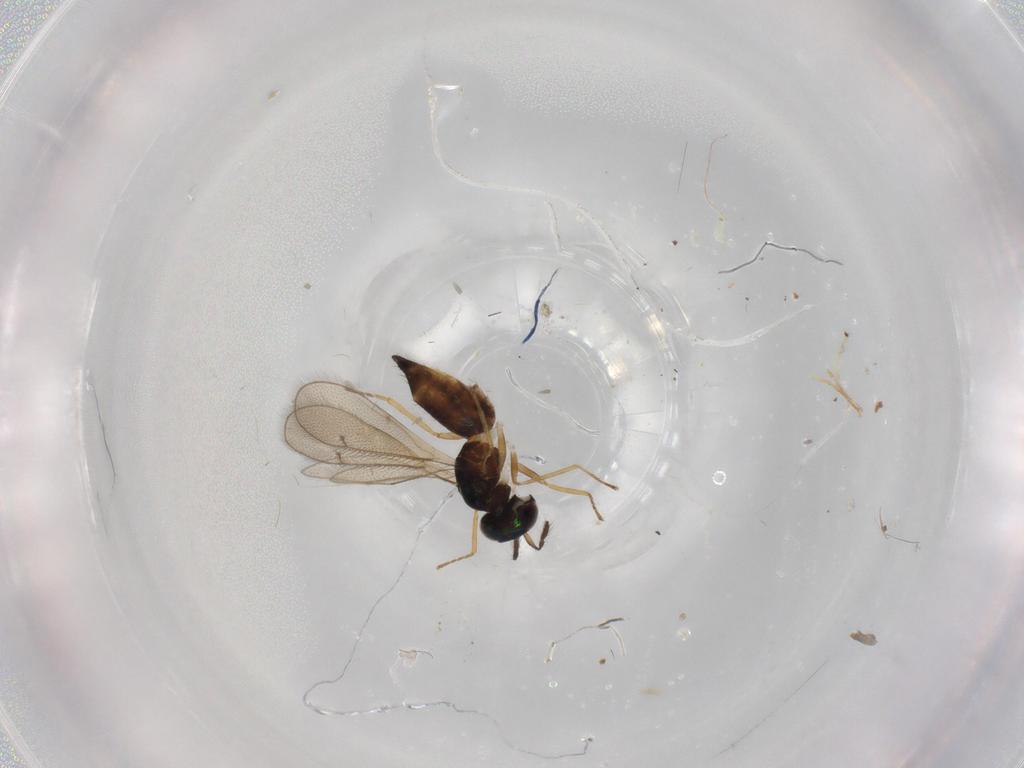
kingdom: Animalia
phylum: Arthropoda
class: Insecta
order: Hymenoptera
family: Eulophidae
